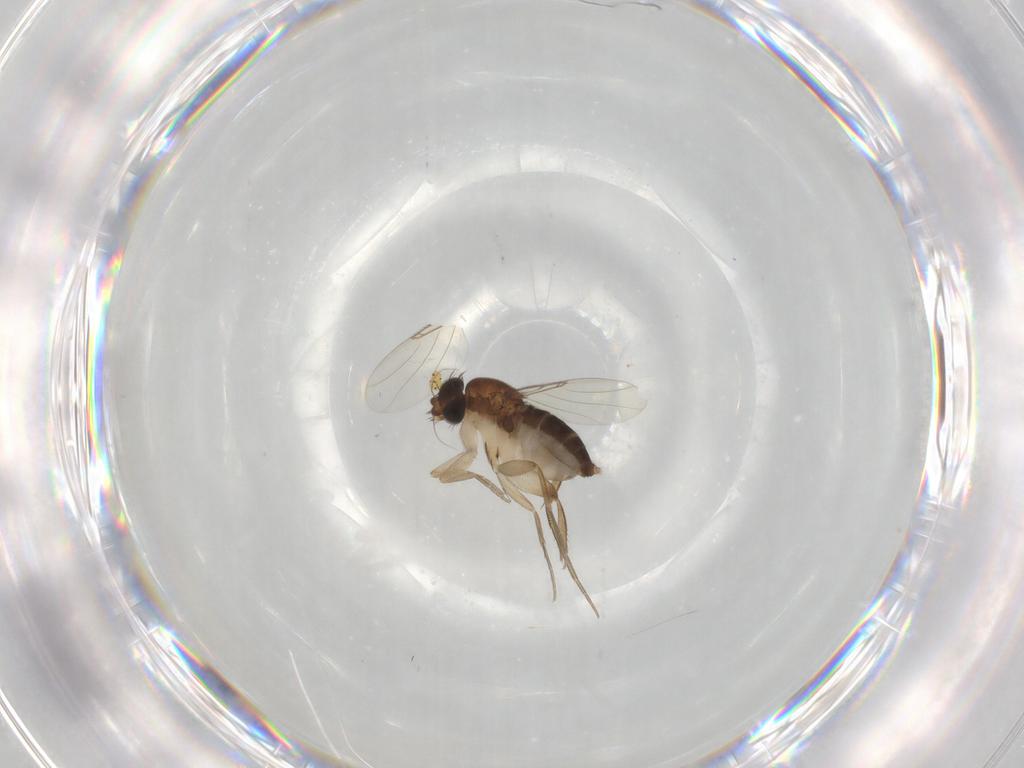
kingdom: Animalia
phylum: Arthropoda
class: Insecta
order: Diptera
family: Phoridae
